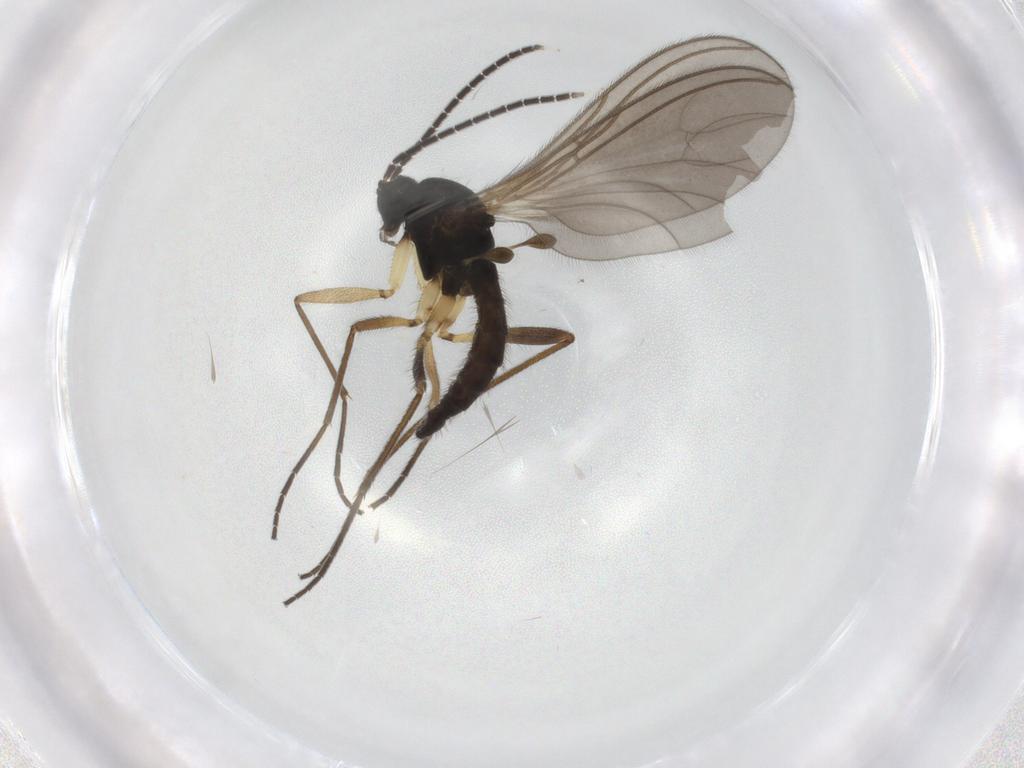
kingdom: Animalia
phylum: Arthropoda
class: Insecta
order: Diptera
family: Sciaridae
